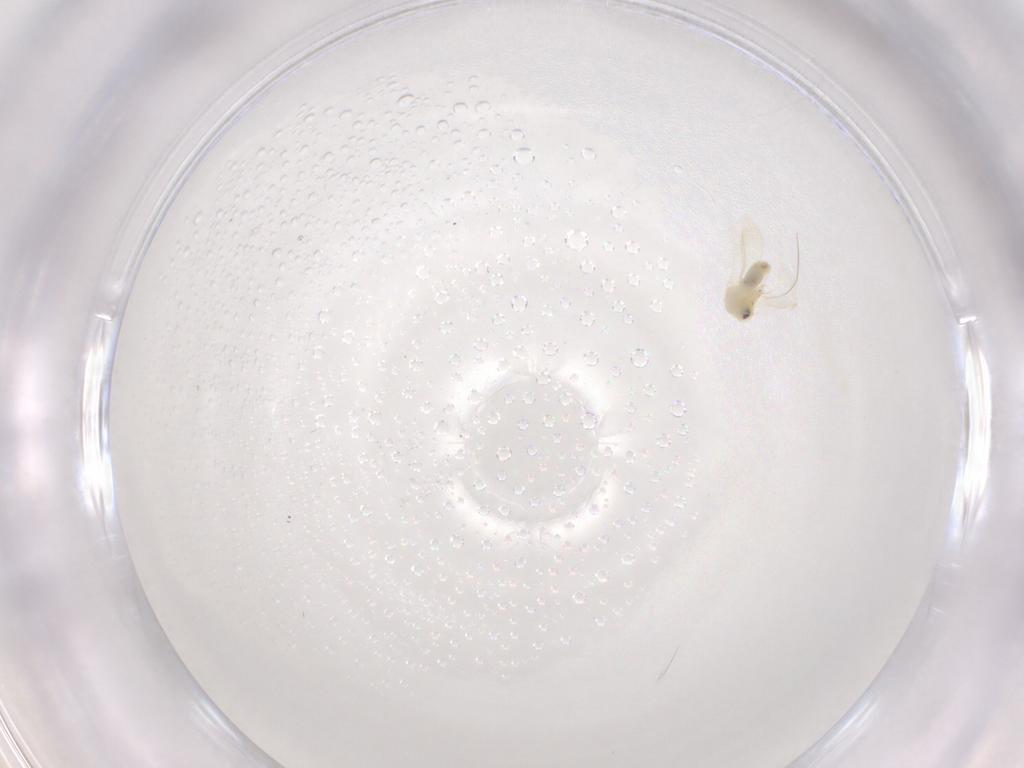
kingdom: Animalia
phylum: Arthropoda
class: Insecta
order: Hemiptera
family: Aleyrodidae
